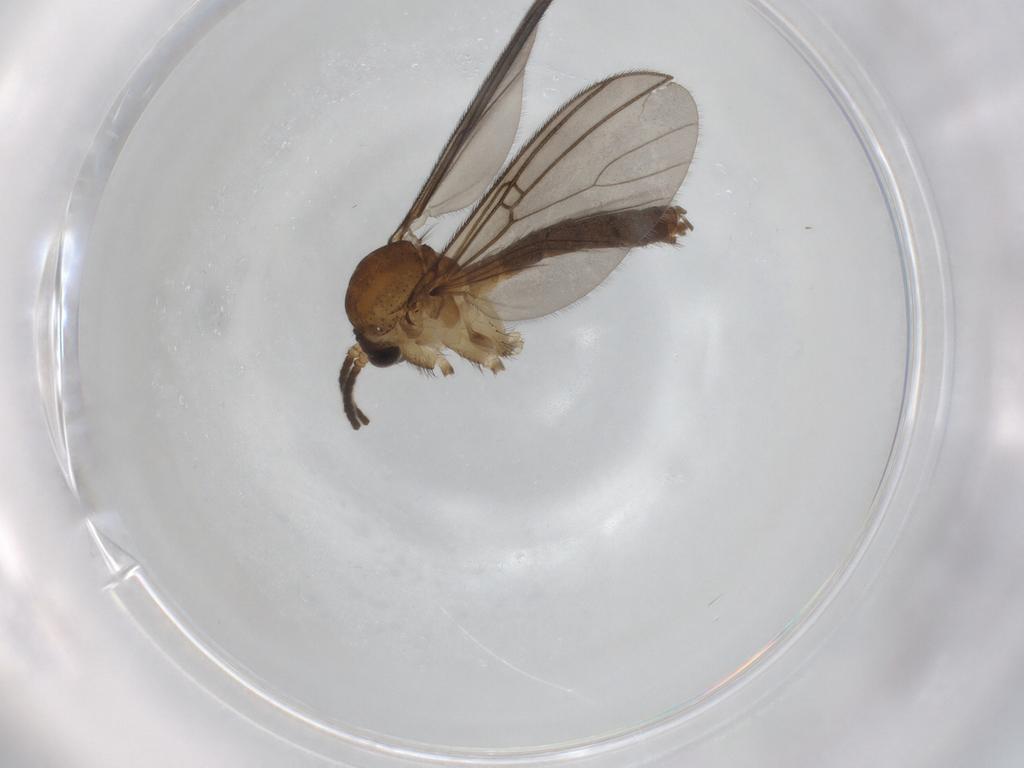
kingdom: Animalia
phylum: Arthropoda
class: Insecta
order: Diptera
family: Mycetophilidae
